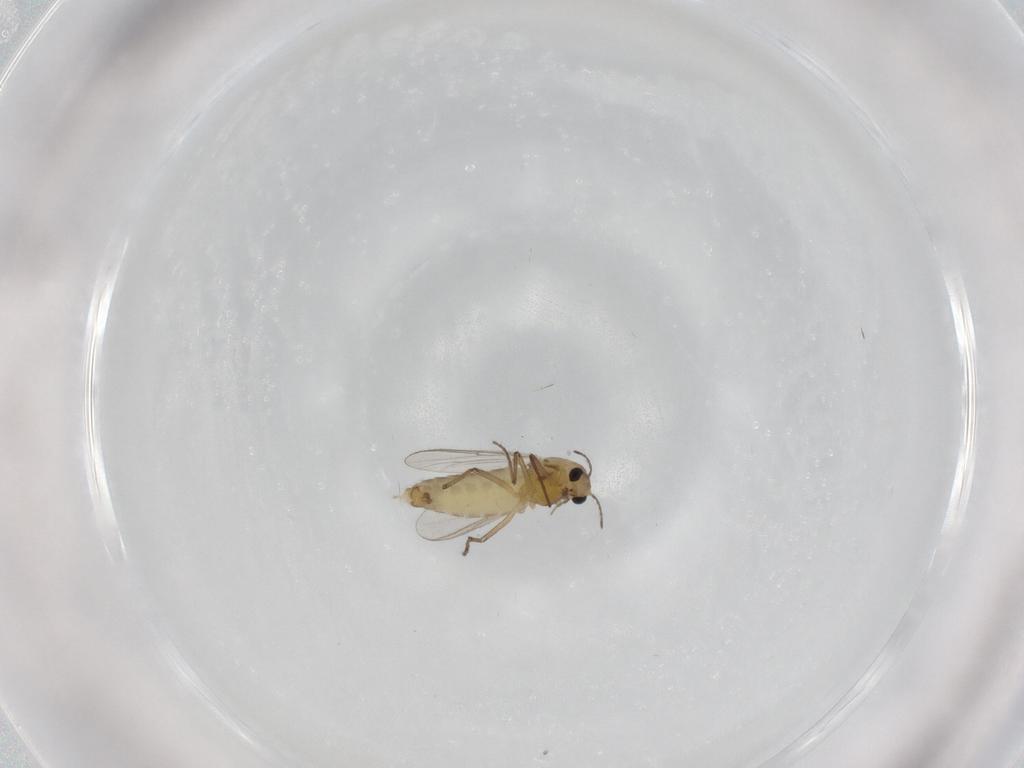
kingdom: Animalia
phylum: Arthropoda
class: Insecta
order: Diptera
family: Chironomidae
